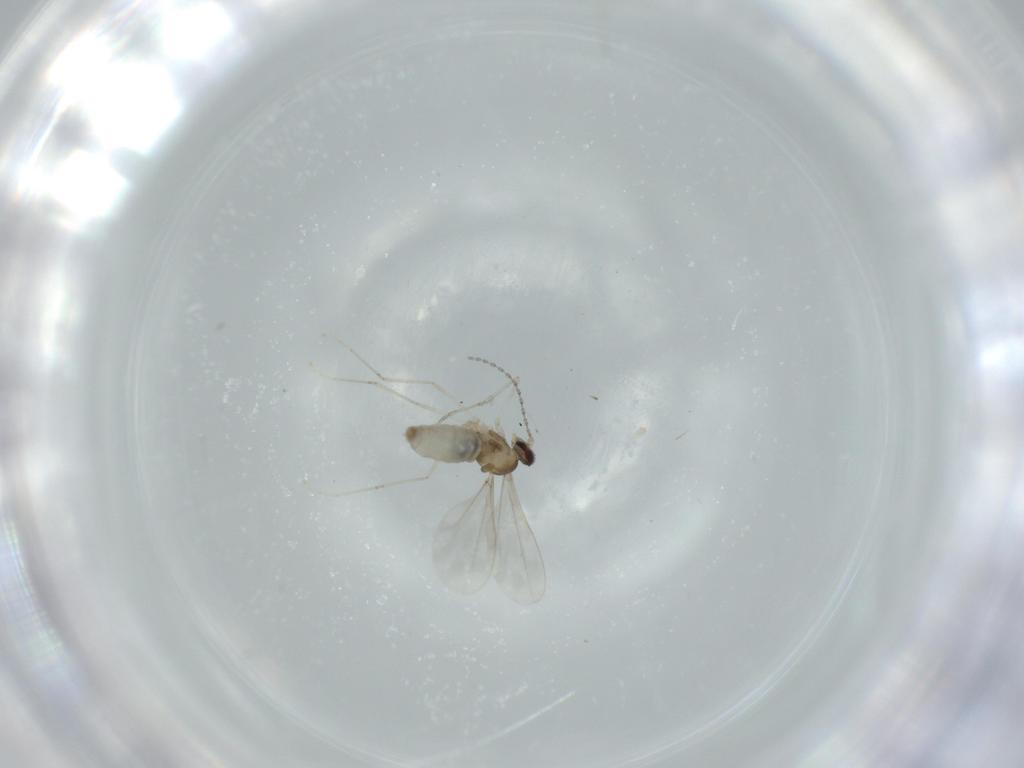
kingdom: Animalia
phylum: Arthropoda
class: Insecta
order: Diptera
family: Cecidomyiidae
